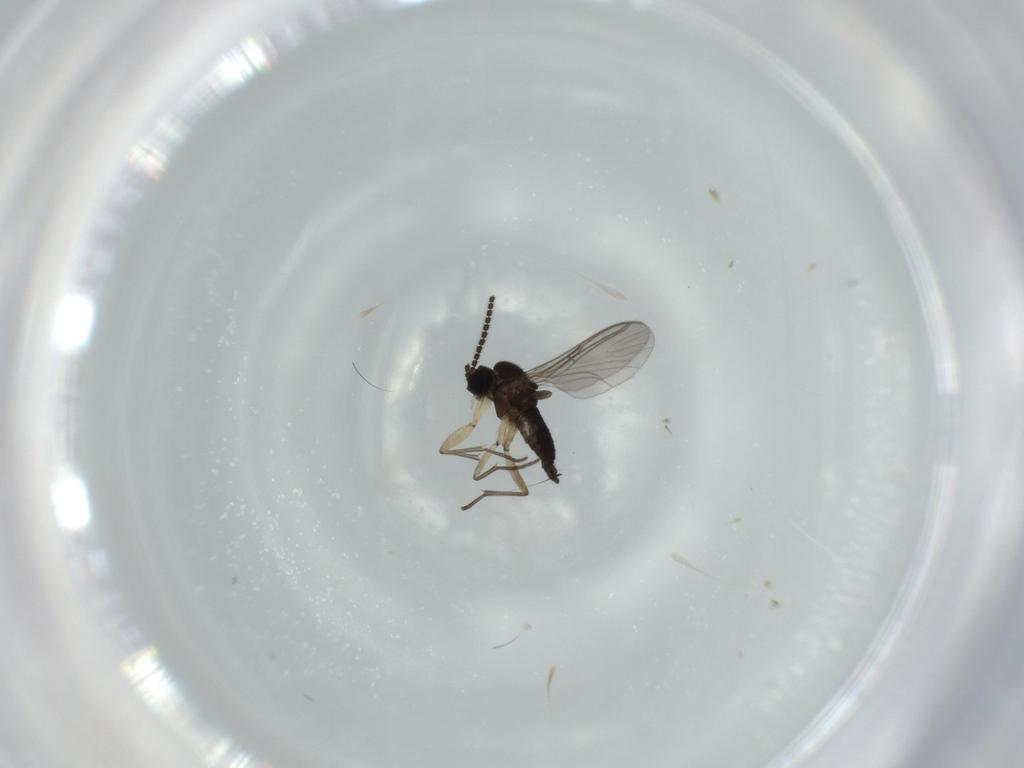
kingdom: Animalia
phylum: Arthropoda
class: Insecta
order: Diptera
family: Sciaridae
